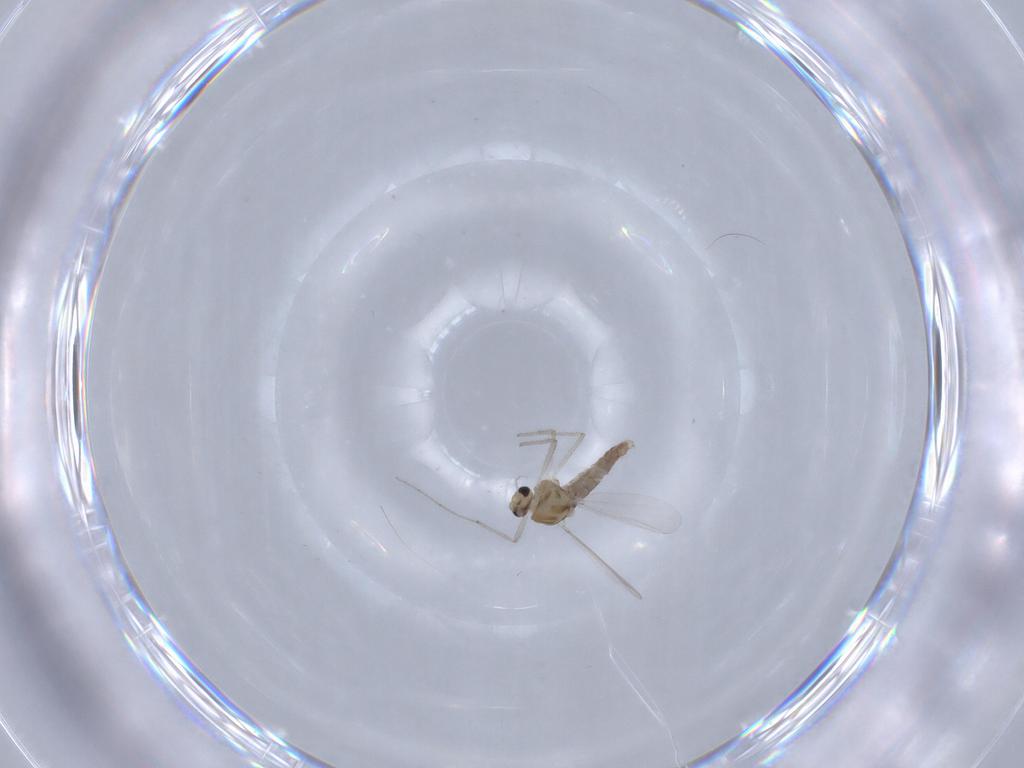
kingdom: Animalia
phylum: Arthropoda
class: Insecta
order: Diptera
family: Chironomidae
